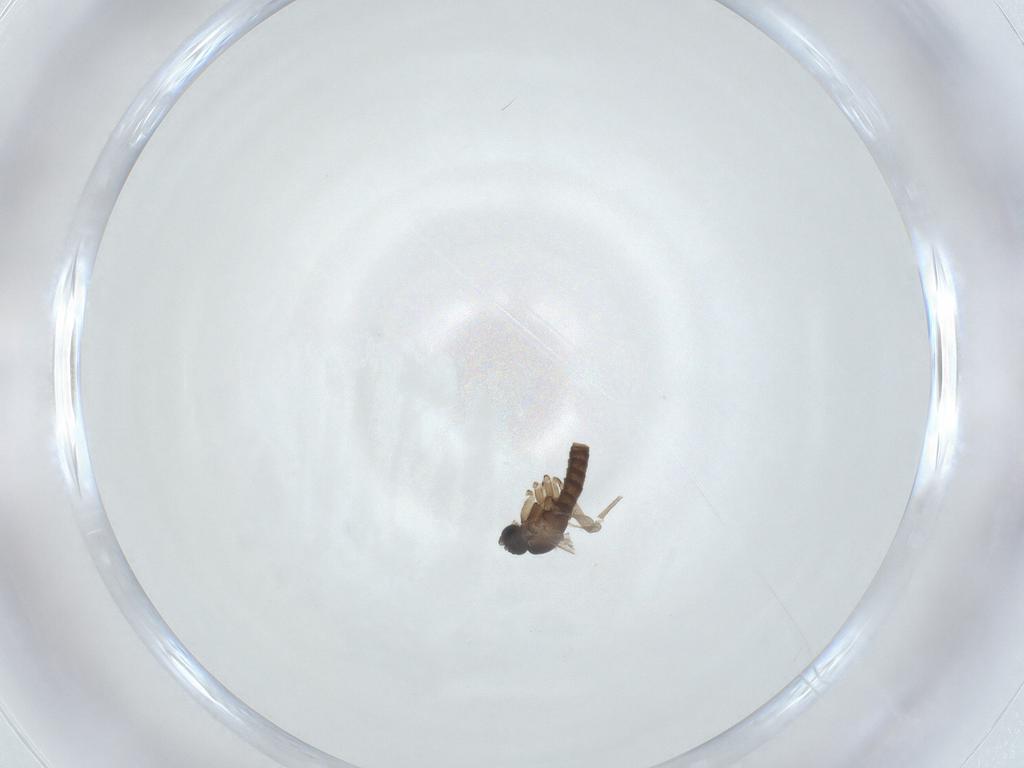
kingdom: Animalia
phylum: Arthropoda
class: Insecta
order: Diptera
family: Sciaridae
